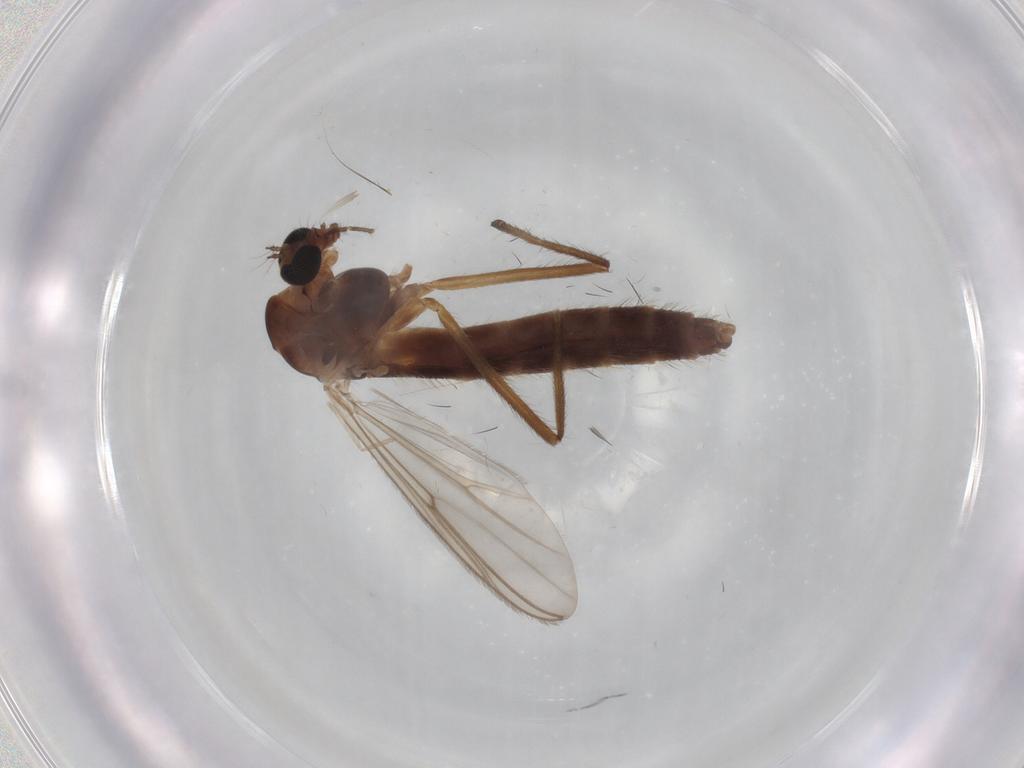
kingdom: Animalia
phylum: Arthropoda
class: Insecta
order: Diptera
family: Chironomidae
